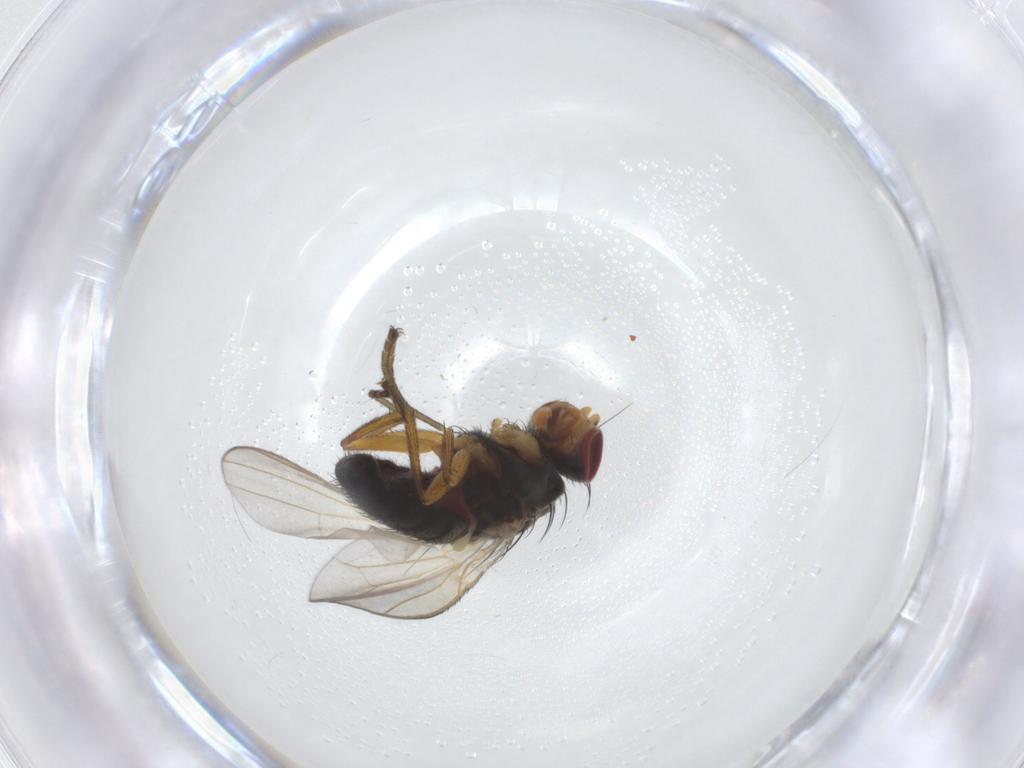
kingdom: Animalia
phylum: Arthropoda
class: Insecta
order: Diptera
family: Heleomyzidae
